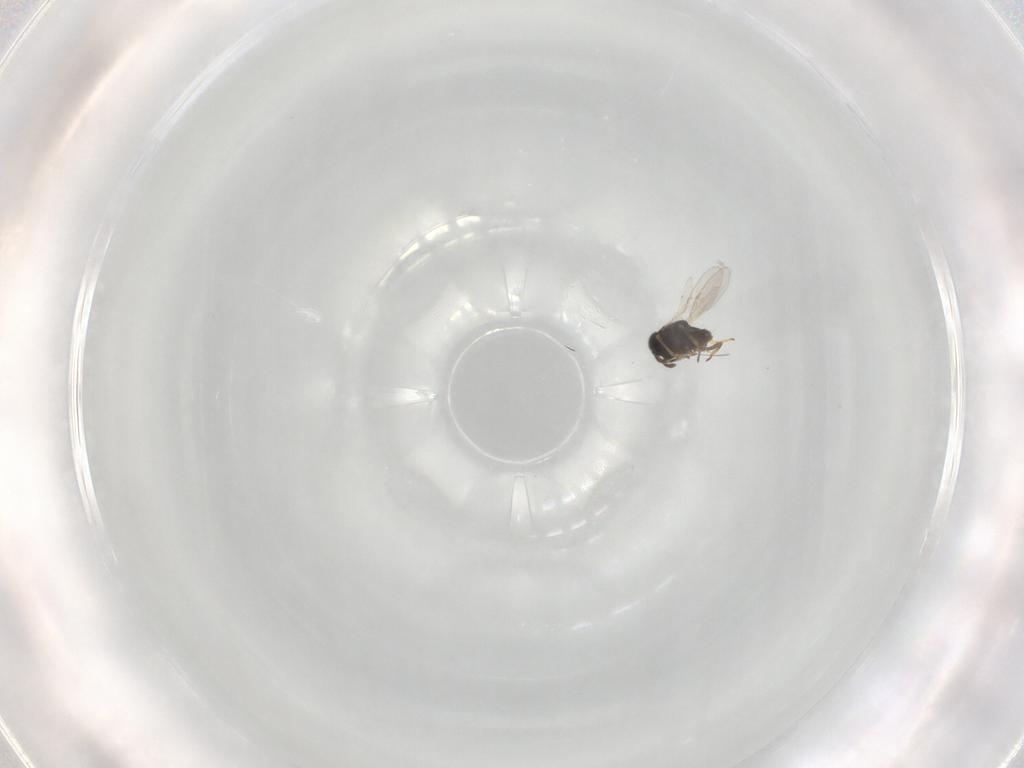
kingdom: Animalia
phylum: Arthropoda
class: Insecta
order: Hymenoptera
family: Encyrtidae
